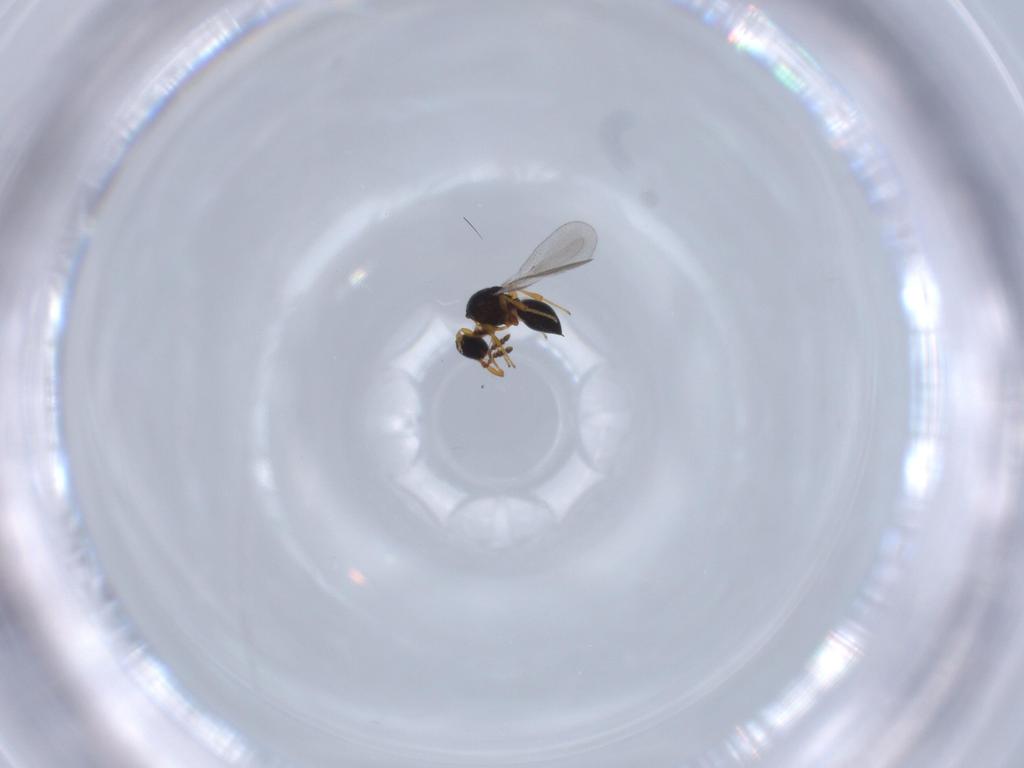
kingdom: Animalia
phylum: Arthropoda
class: Insecta
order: Hymenoptera
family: Platygastridae
